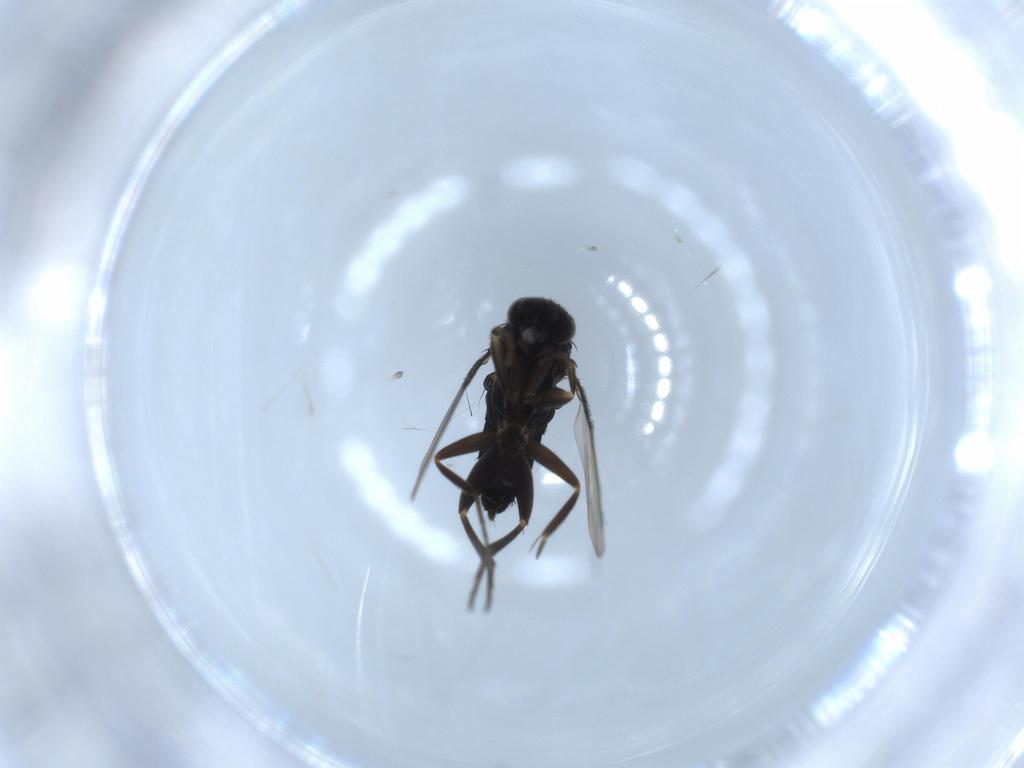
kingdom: Animalia
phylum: Arthropoda
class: Insecta
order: Diptera
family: Dolichopodidae
